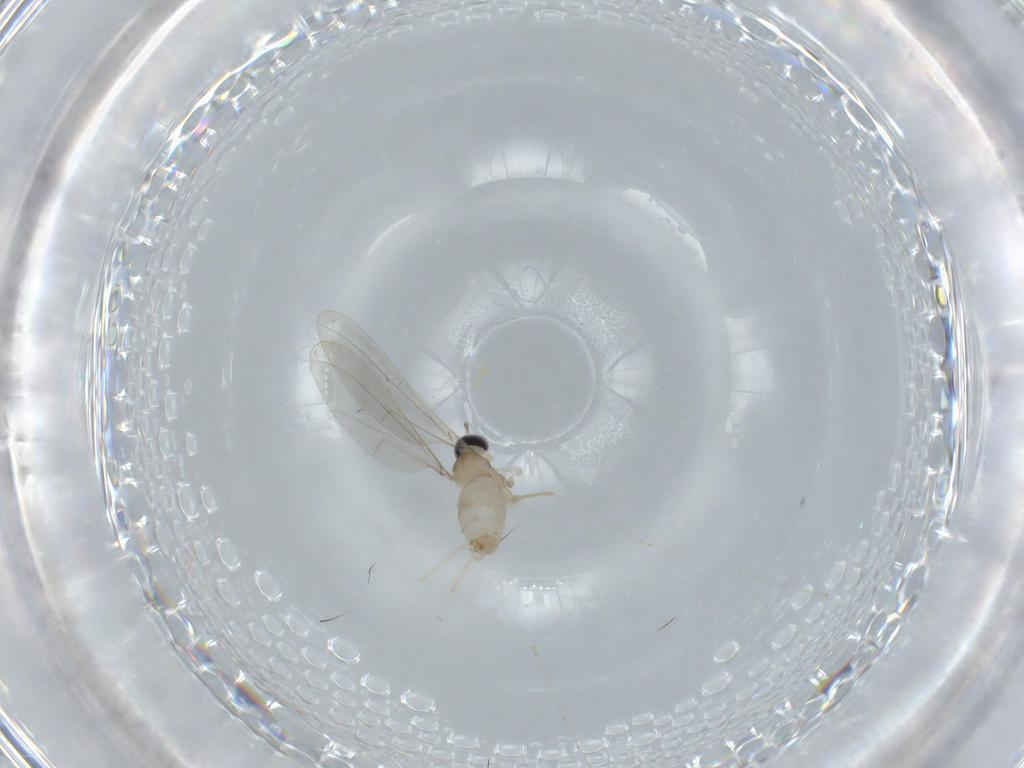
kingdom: Animalia
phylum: Arthropoda
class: Insecta
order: Diptera
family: Cecidomyiidae
